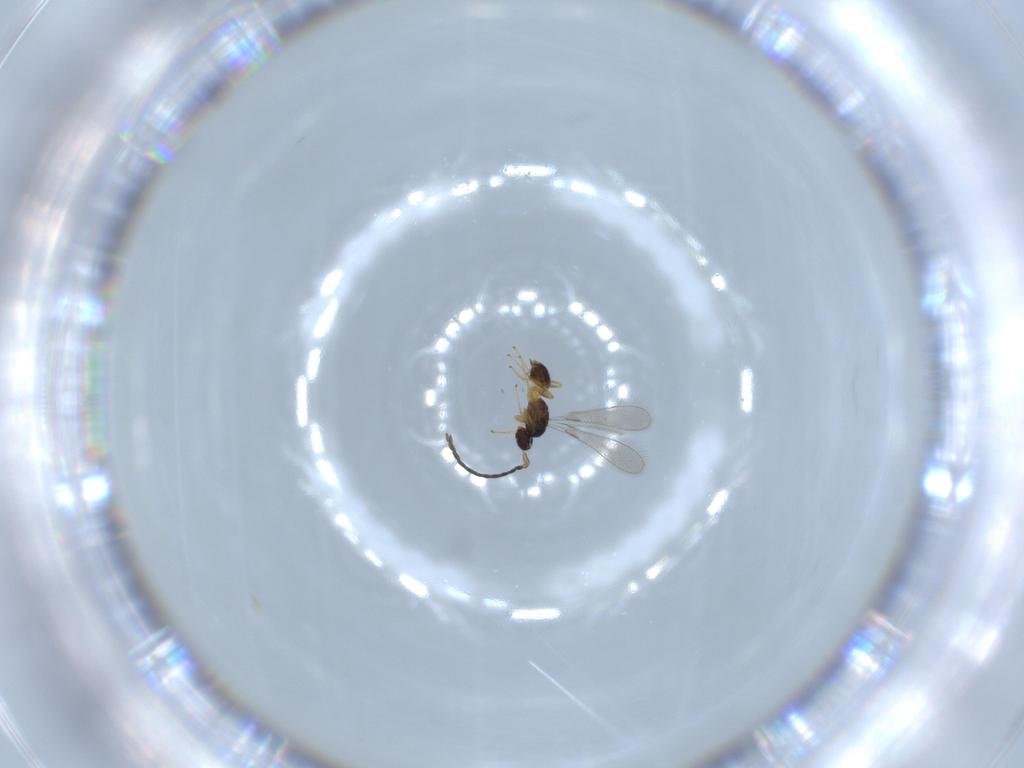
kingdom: Animalia
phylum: Arthropoda
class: Insecta
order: Hymenoptera
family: Mymaridae
